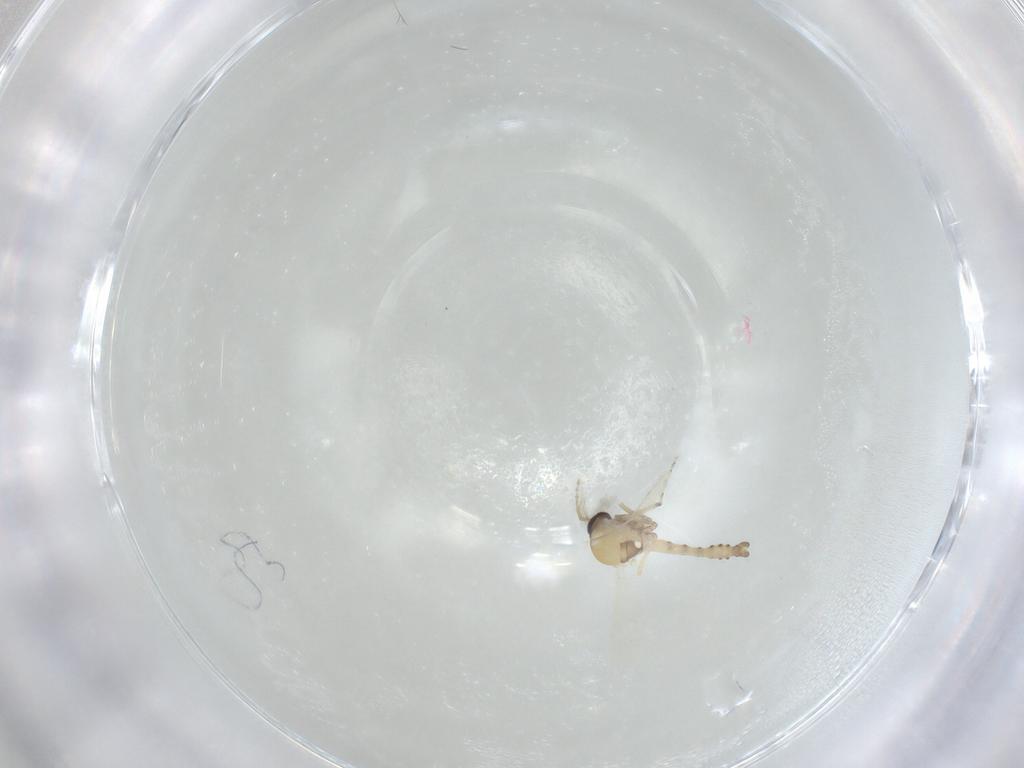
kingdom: Animalia
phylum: Arthropoda
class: Insecta
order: Diptera
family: Ceratopogonidae
